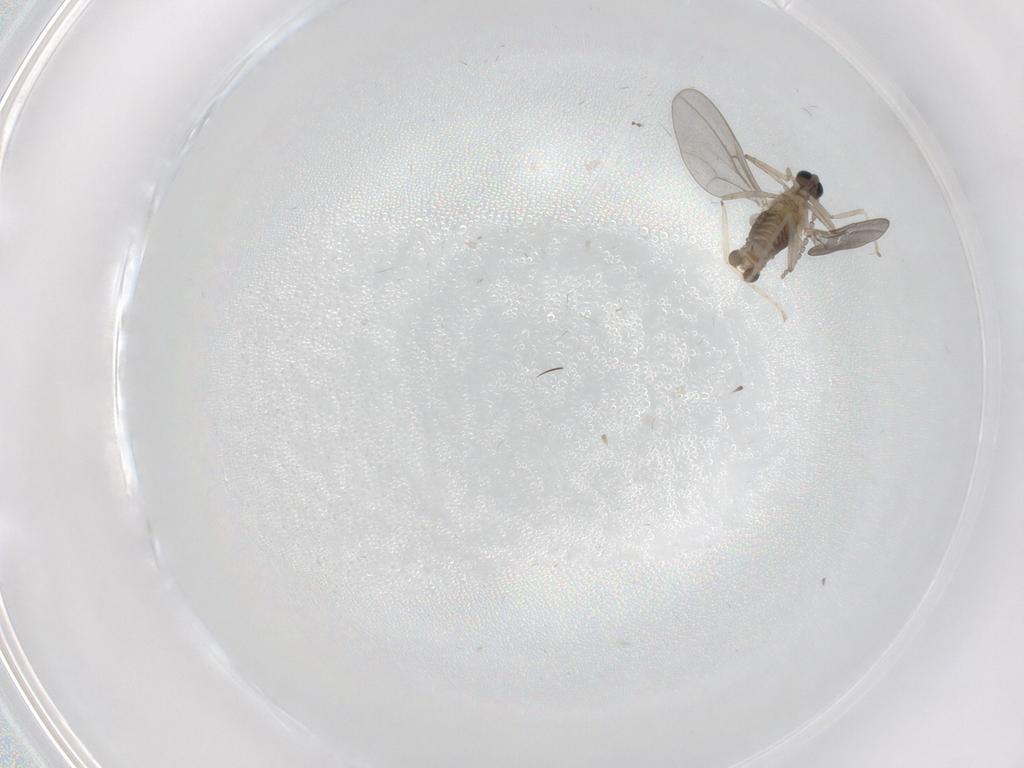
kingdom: Animalia
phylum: Arthropoda
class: Insecta
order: Diptera
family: Cecidomyiidae
